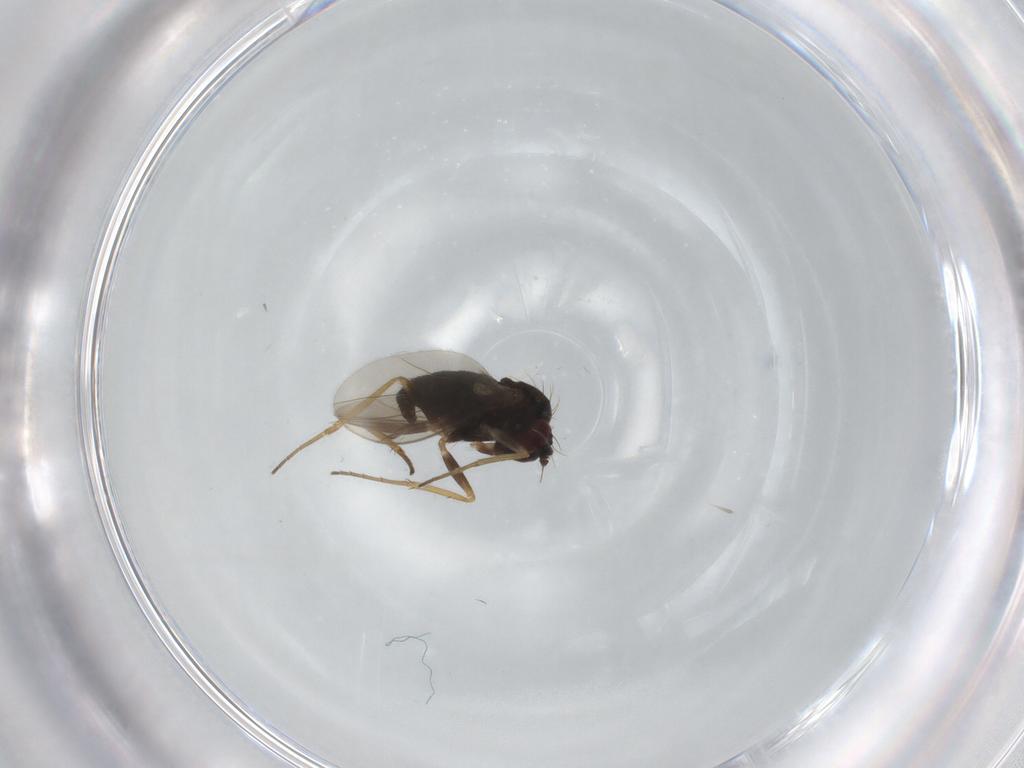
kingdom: Animalia
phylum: Arthropoda
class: Insecta
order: Diptera
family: Dolichopodidae
